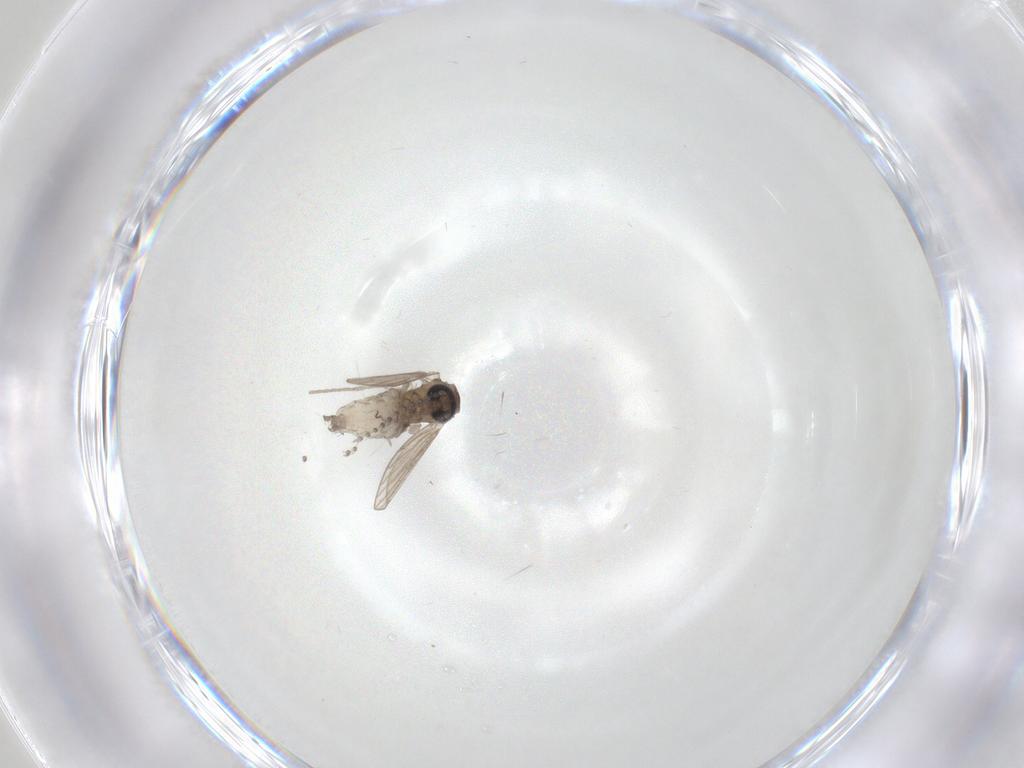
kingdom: Animalia
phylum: Arthropoda
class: Insecta
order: Diptera
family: Psychodidae
